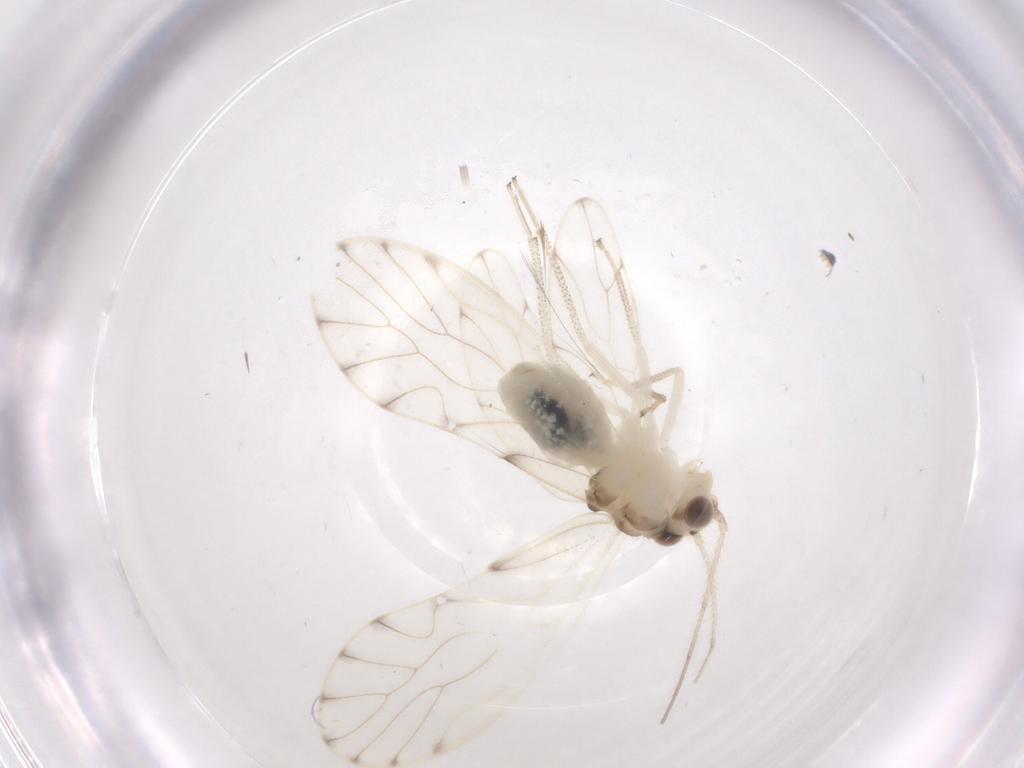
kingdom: Animalia
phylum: Arthropoda
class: Insecta
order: Psocodea
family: Philotarsidae
